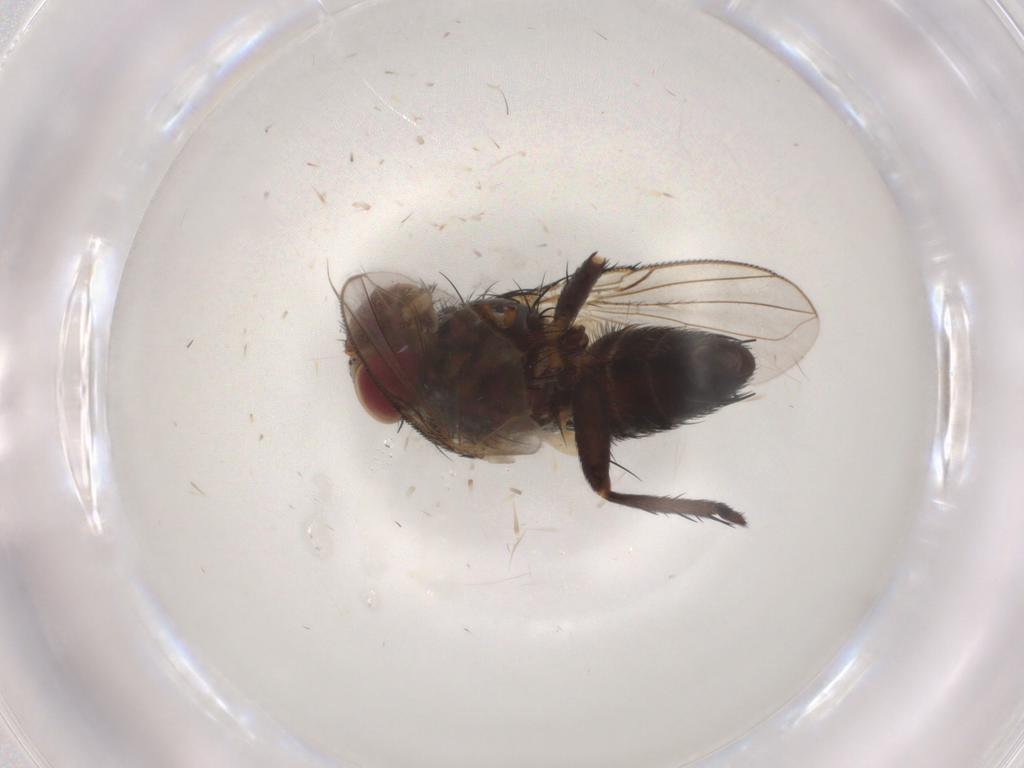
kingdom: Animalia
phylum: Arthropoda
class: Insecta
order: Diptera
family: Tachinidae
